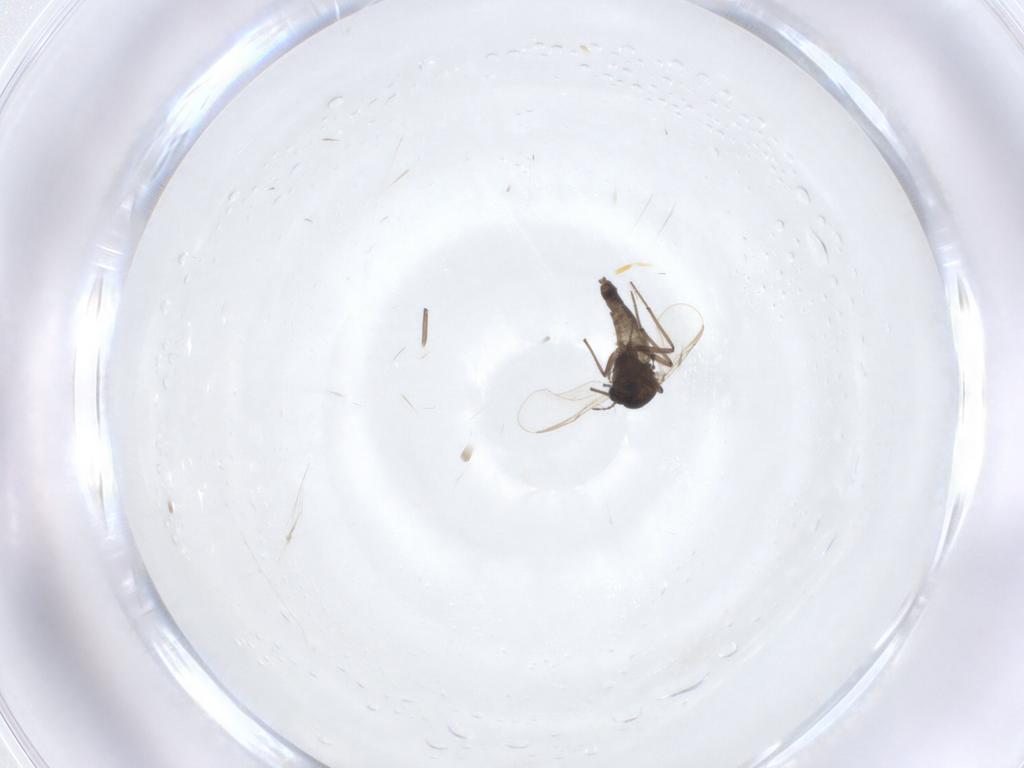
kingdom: Animalia
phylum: Arthropoda
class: Insecta
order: Diptera
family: Chironomidae
